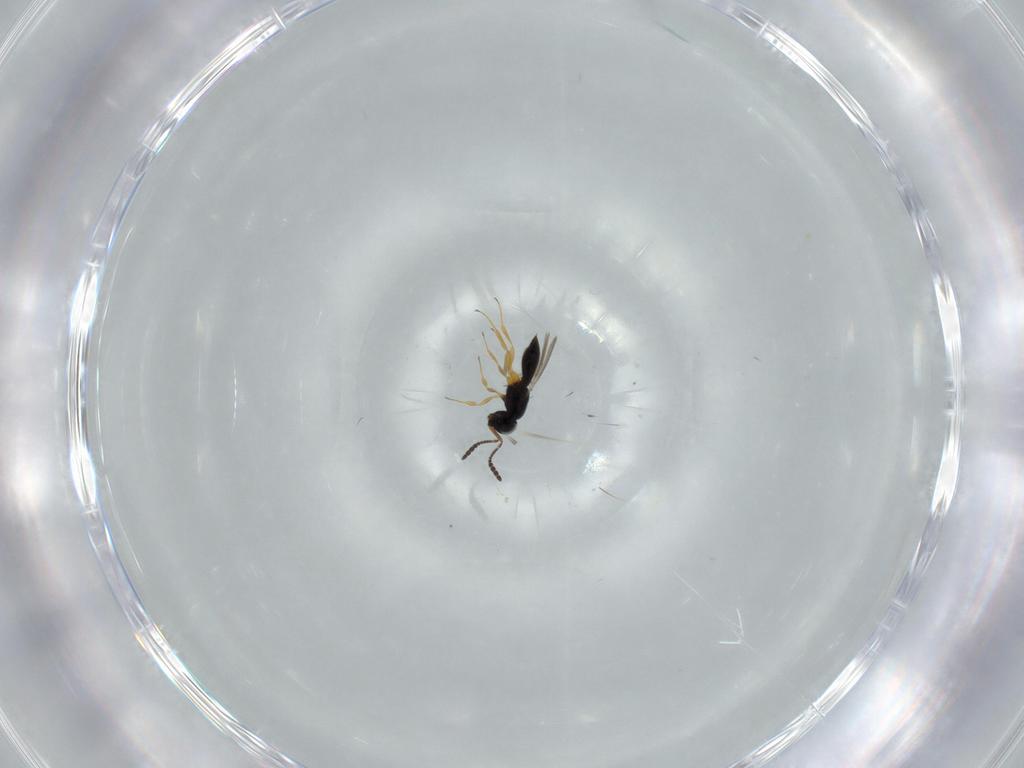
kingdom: Animalia
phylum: Arthropoda
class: Insecta
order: Hymenoptera
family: Scelionidae
